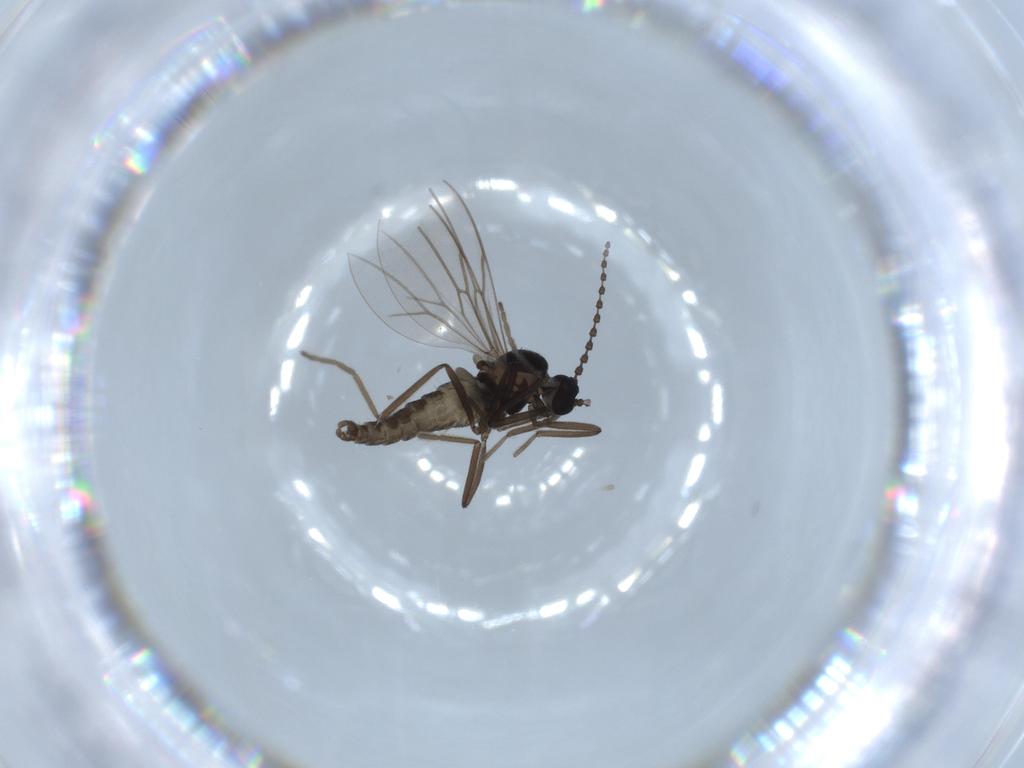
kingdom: Animalia
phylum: Arthropoda
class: Insecta
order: Diptera
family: Cecidomyiidae
